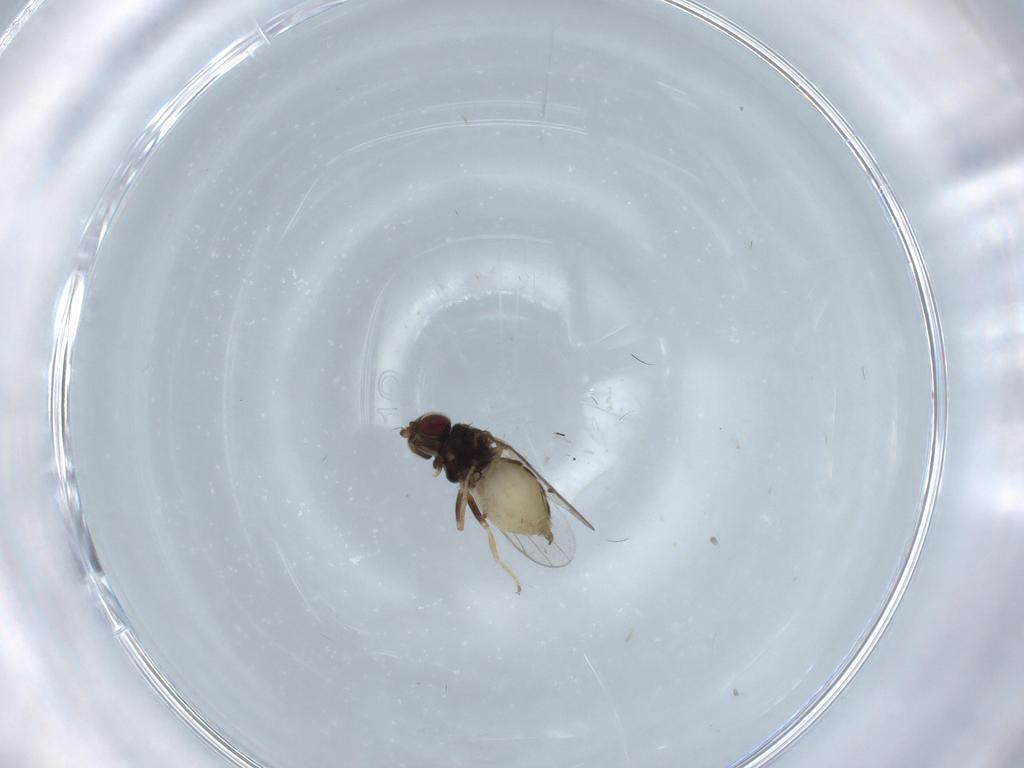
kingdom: Animalia
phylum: Arthropoda
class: Insecta
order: Diptera
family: Chloropidae
